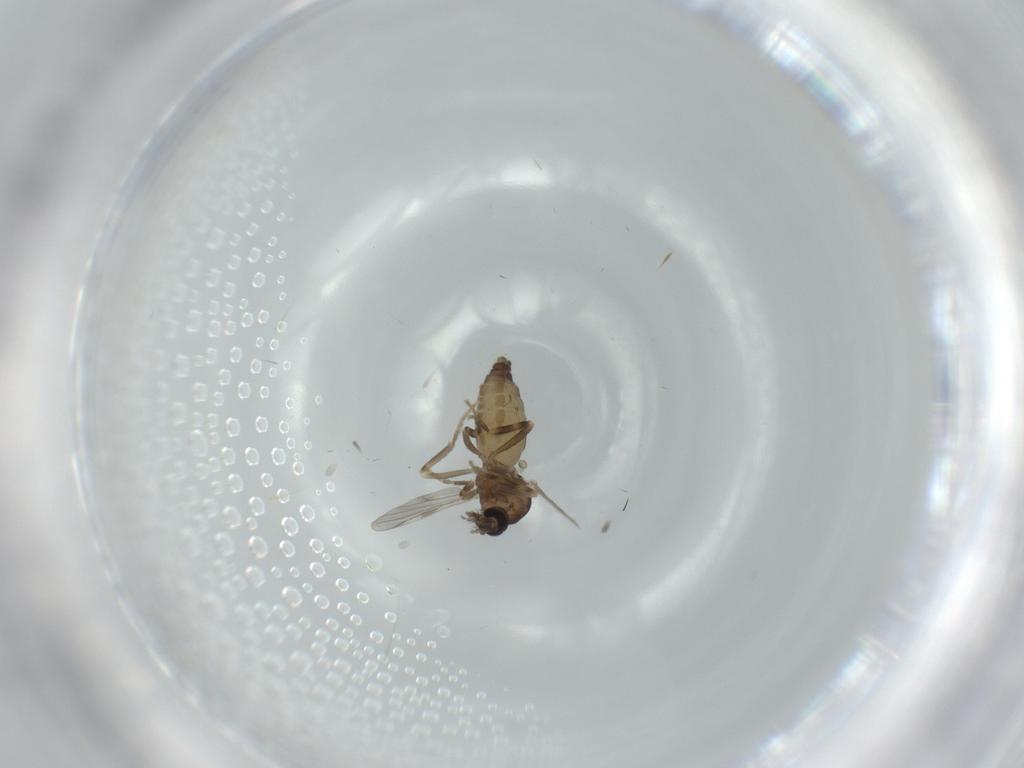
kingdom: Animalia
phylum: Arthropoda
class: Insecta
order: Diptera
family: Ceratopogonidae
